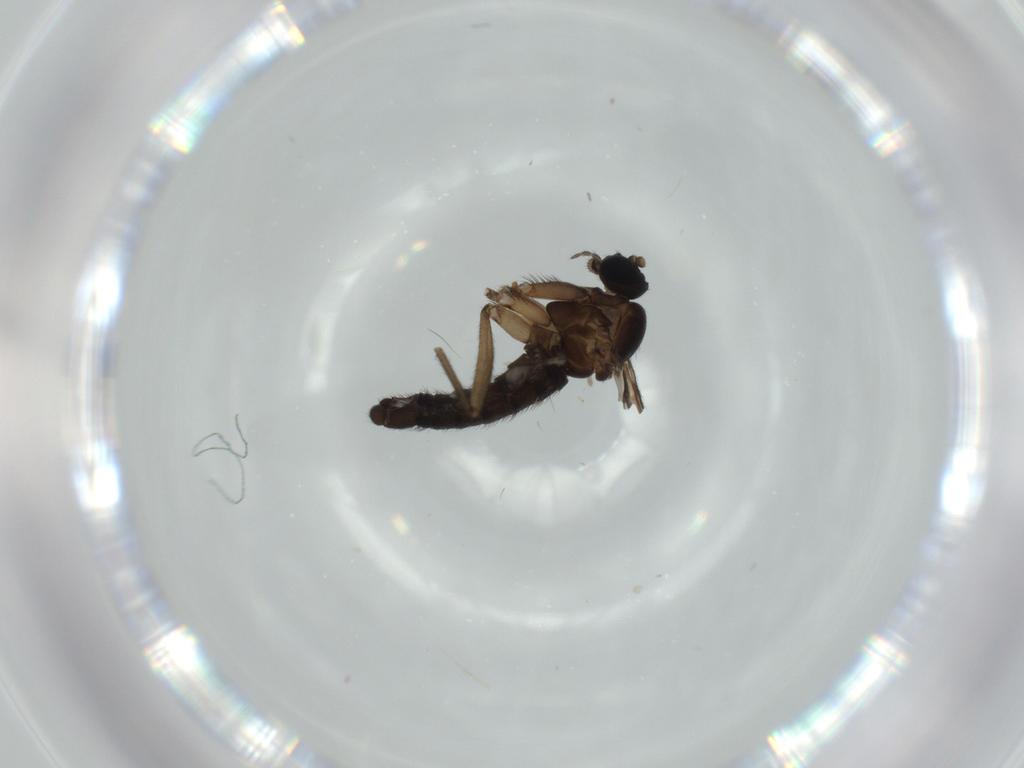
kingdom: Animalia
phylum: Arthropoda
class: Insecta
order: Diptera
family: Sciaridae
